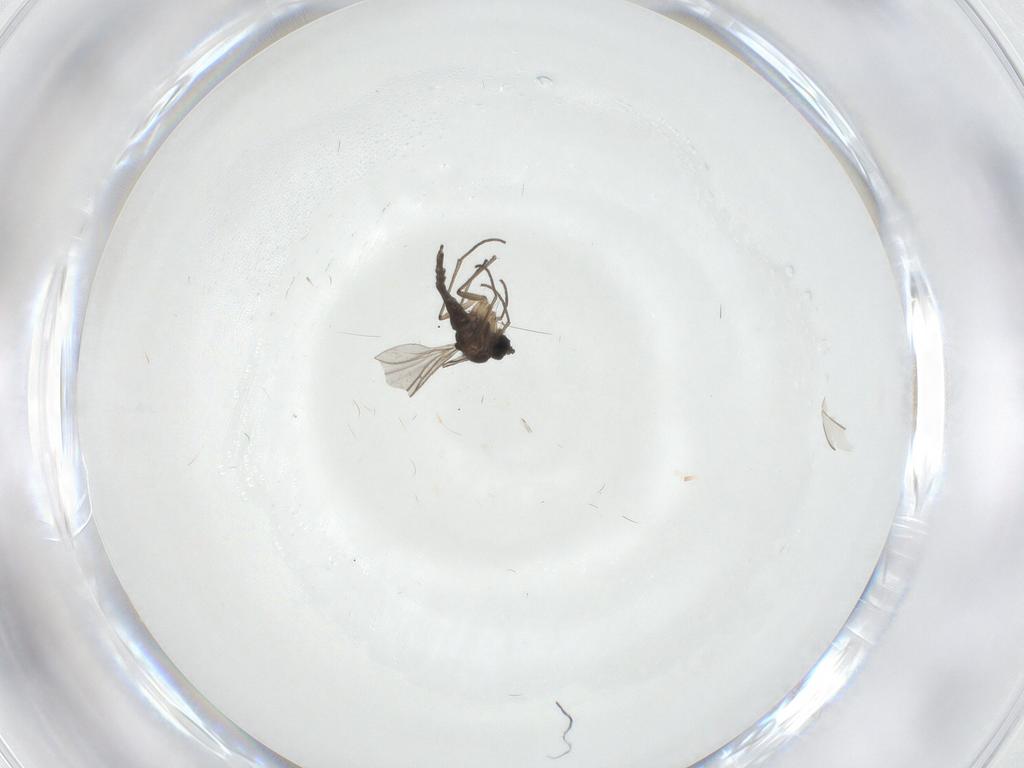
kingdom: Animalia
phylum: Arthropoda
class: Insecta
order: Diptera
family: Sciaridae
